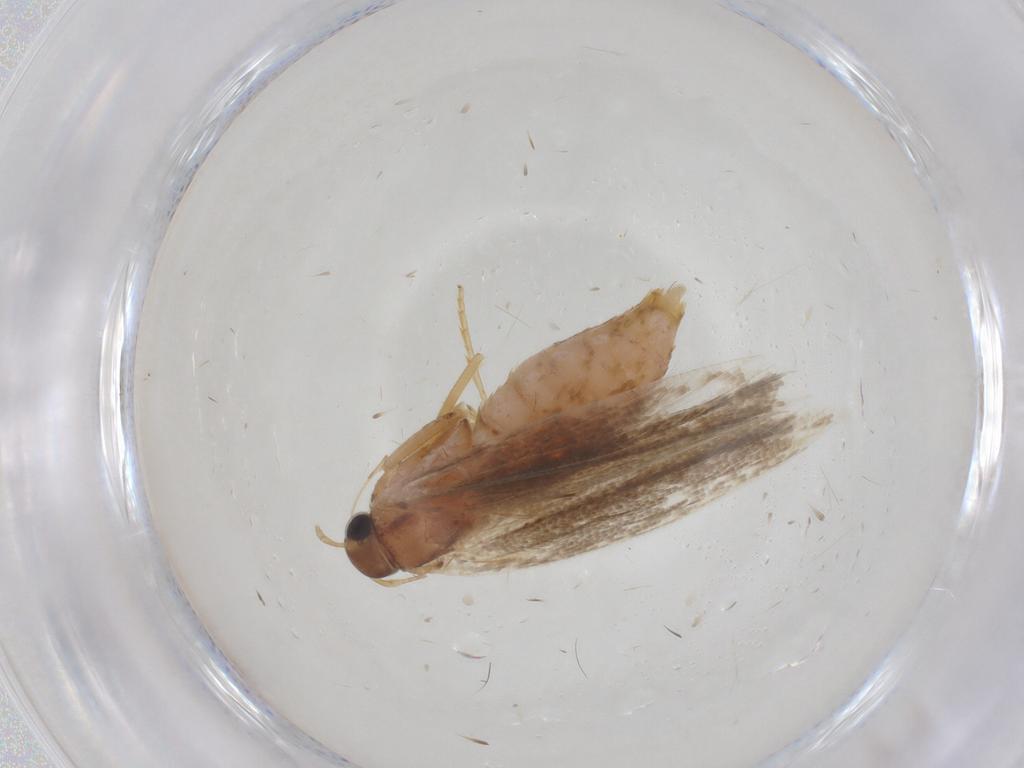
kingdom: Animalia
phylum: Arthropoda
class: Insecta
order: Lepidoptera
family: Gelechiidae
